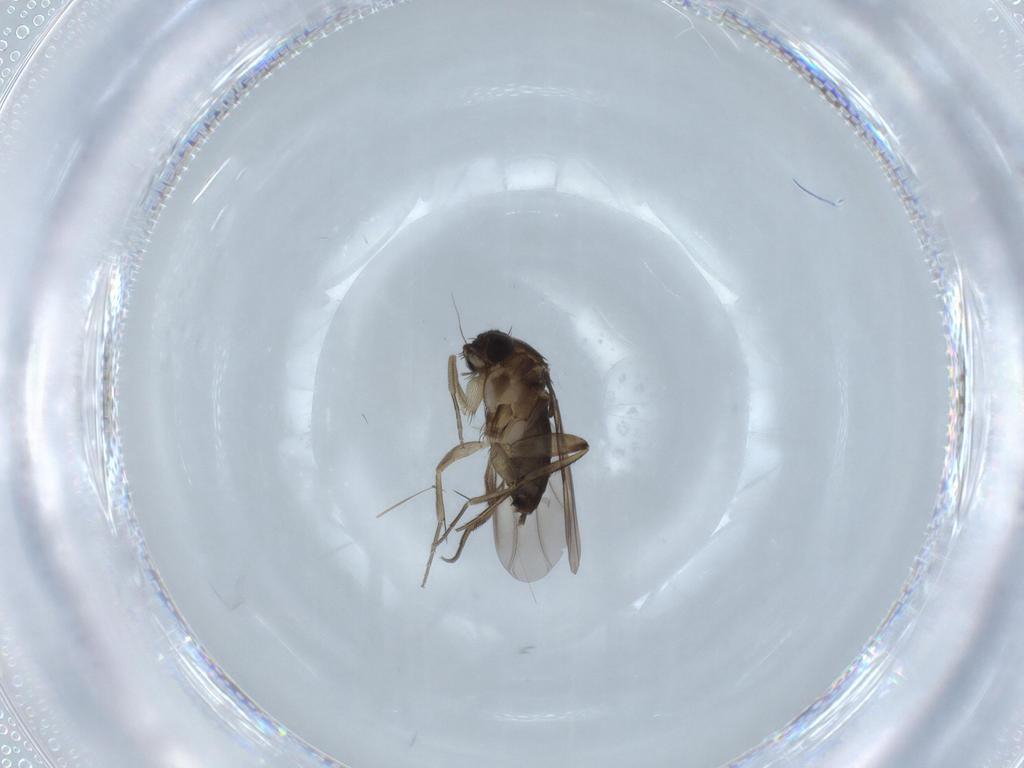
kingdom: Animalia
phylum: Arthropoda
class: Insecta
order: Diptera
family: Phoridae
